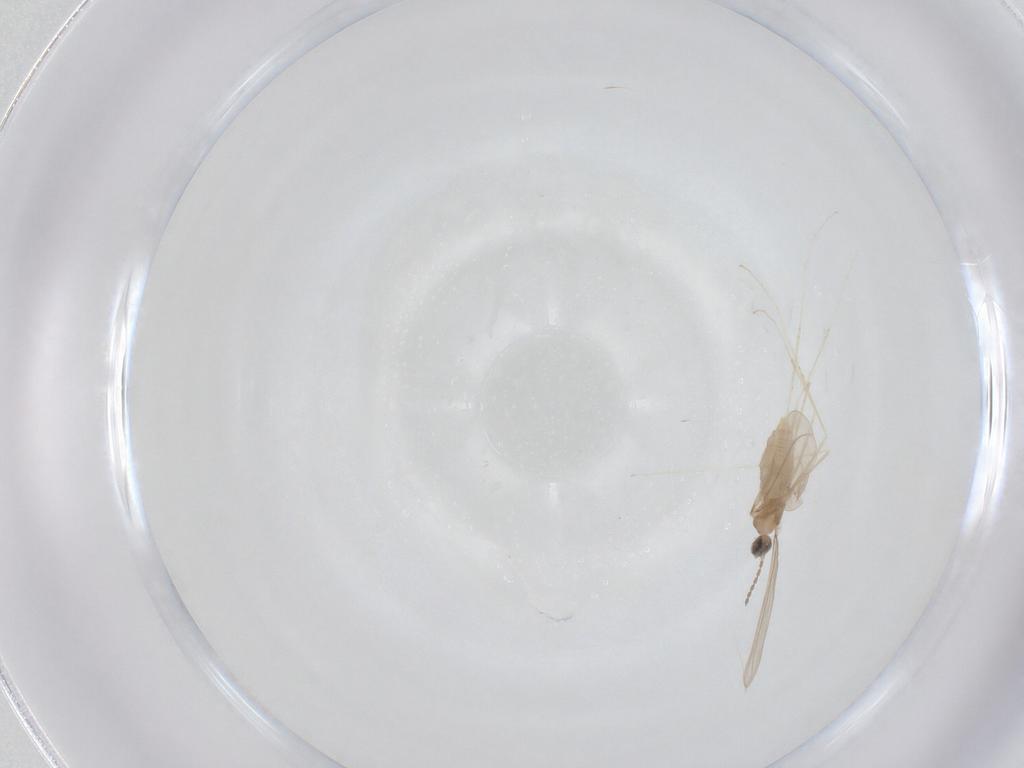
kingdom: Animalia
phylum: Arthropoda
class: Insecta
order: Diptera
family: Cecidomyiidae
